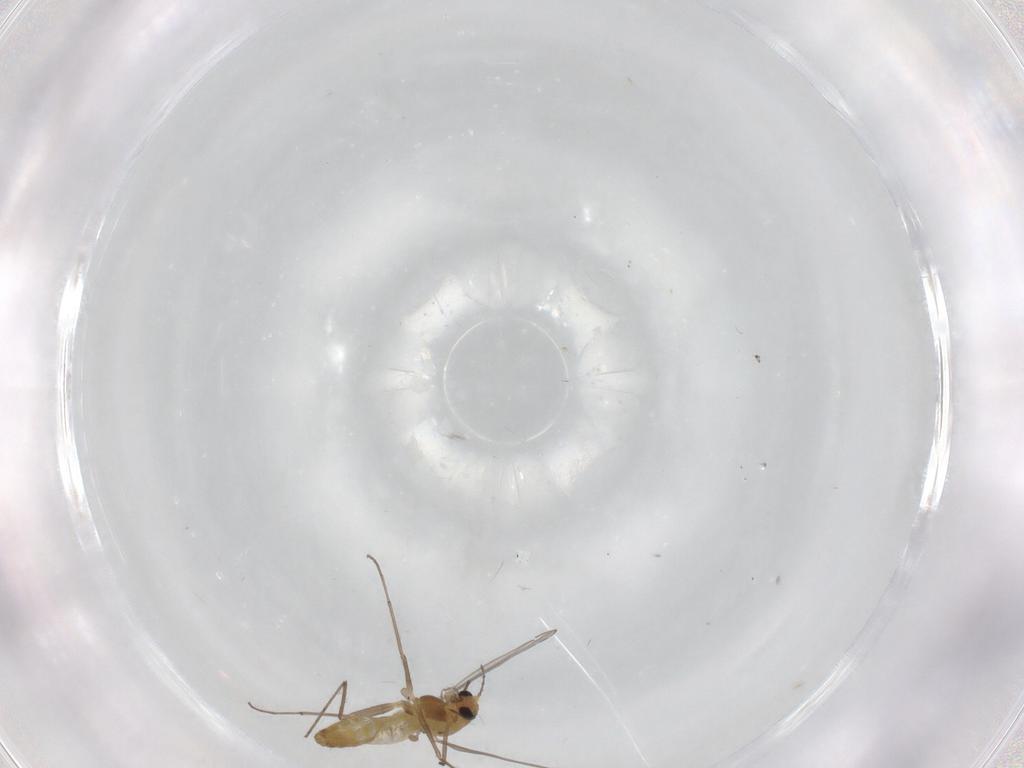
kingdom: Animalia
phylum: Arthropoda
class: Insecta
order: Diptera
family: Chironomidae
